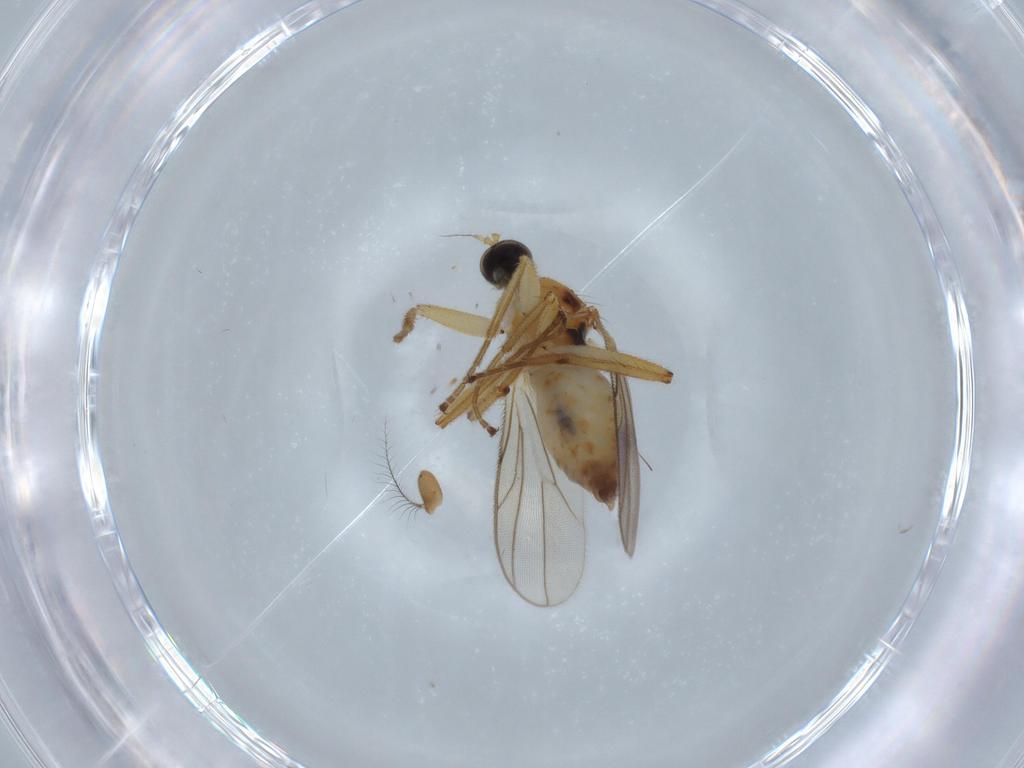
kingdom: Animalia
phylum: Arthropoda
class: Insecta
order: Diptera
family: Hybotidae
